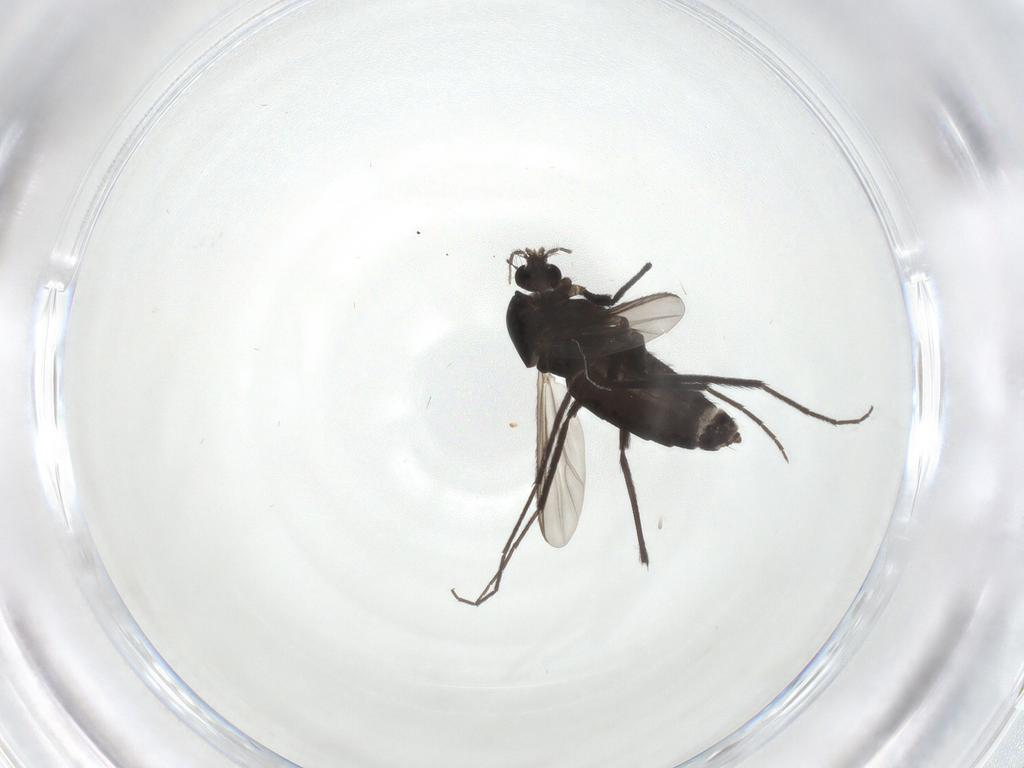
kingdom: Animalia
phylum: Arthropoda
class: Insecta
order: Diptera
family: Chironomidae
